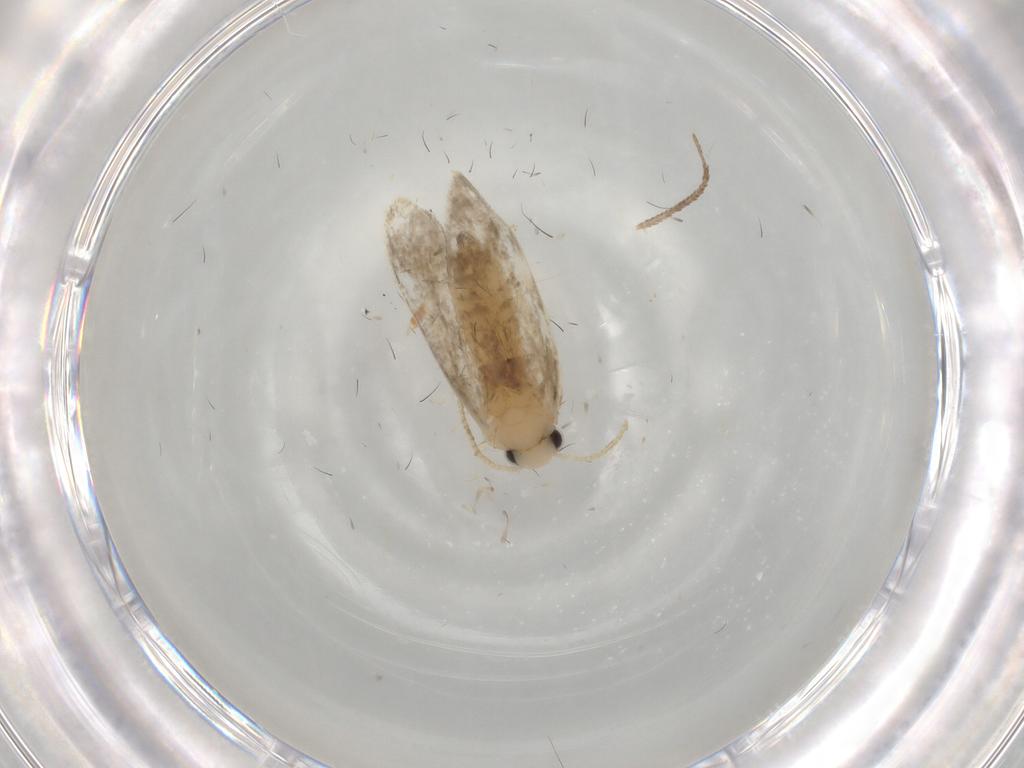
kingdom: Animalia
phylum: Arthropoda
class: Insecta
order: Lepidoptera
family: Psychidae
